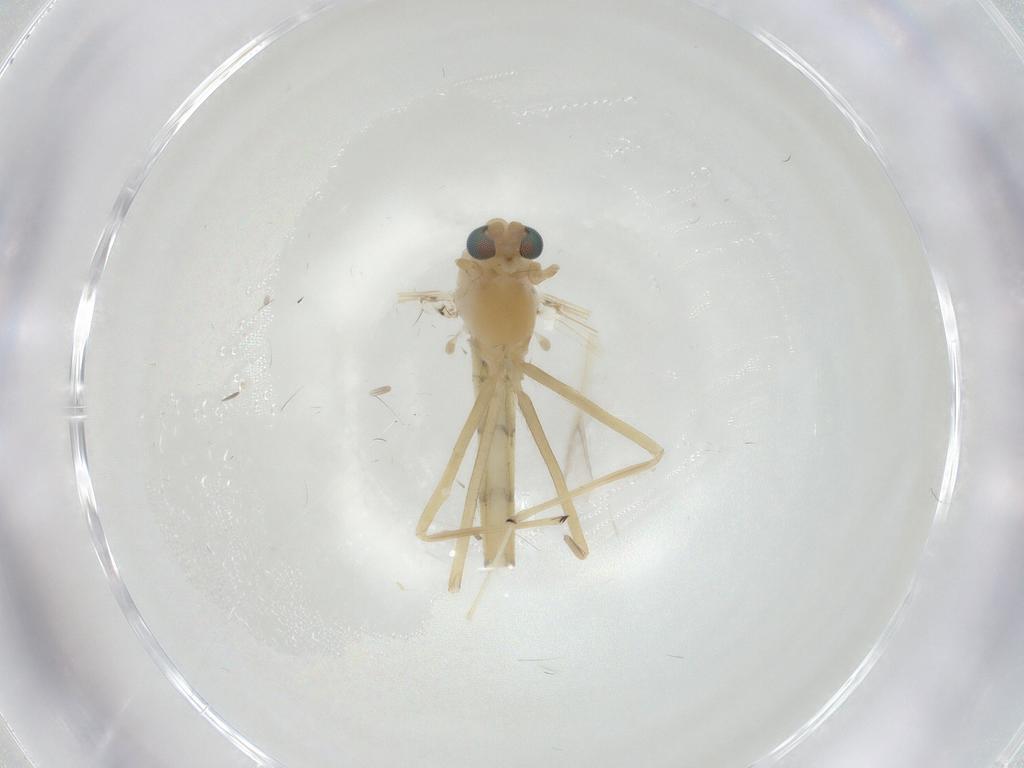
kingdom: Animalia
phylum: Arthropoda
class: Insecta
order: Diptera
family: Chironomidae
